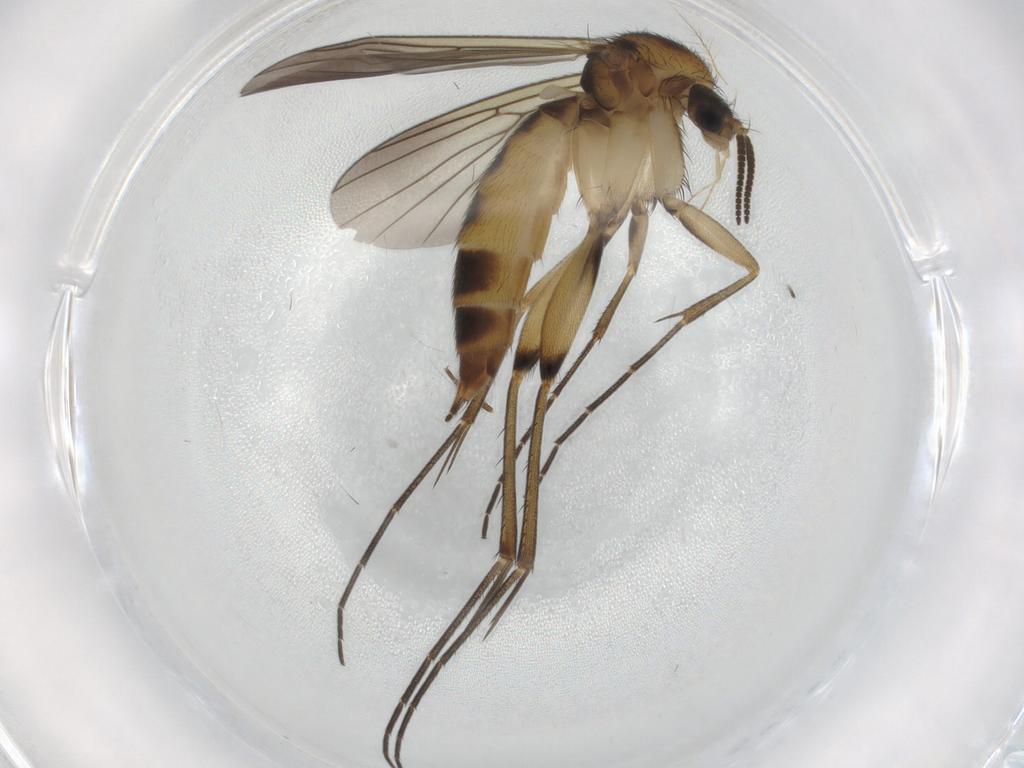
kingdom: Animalia
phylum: Arthropoda
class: Insecta
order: Diptera
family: Mycetophilidae
